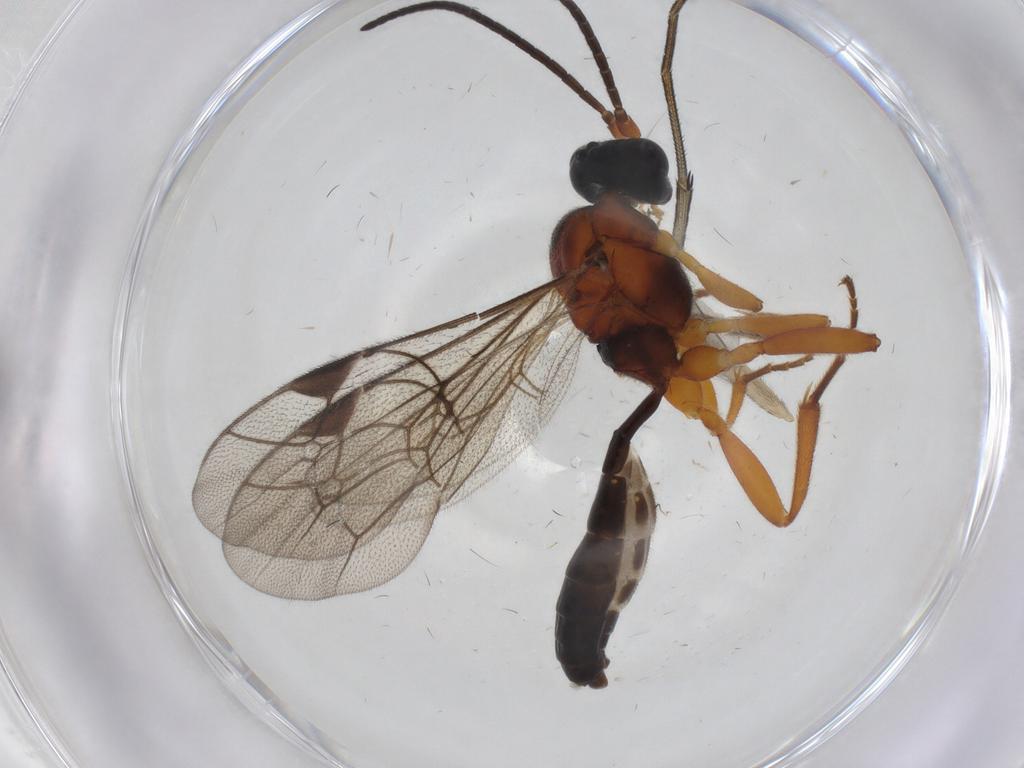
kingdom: Animalia
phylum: Arthropoda
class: Insecta
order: Hymenoptera
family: Ichneumonidae
